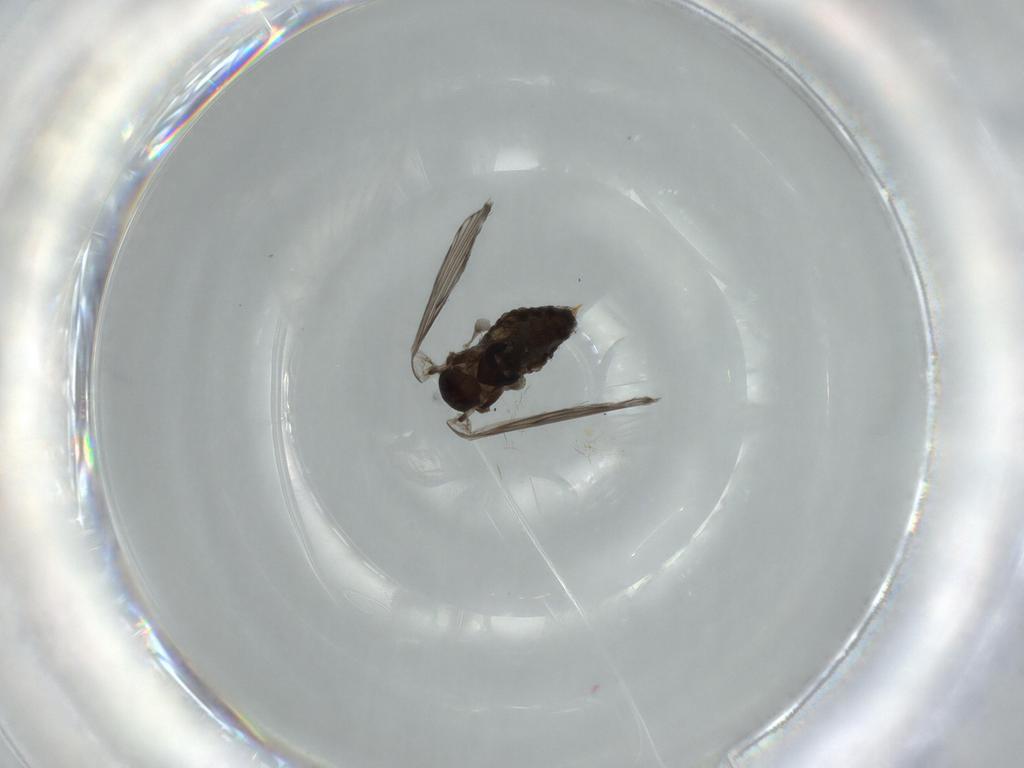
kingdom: Animalia
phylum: Arthropoda
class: Insecta
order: Diptera
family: Psychodidae
